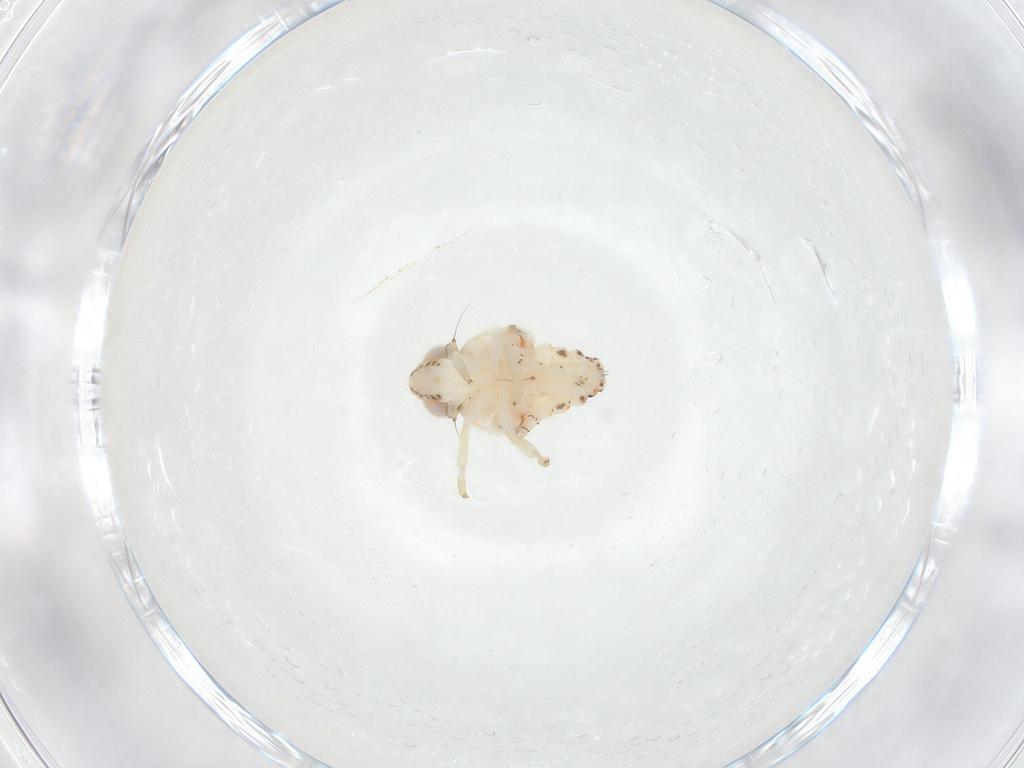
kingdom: Animalia
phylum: Arthropoda
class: Insecta
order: Hemiptera
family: Nogodinidae
